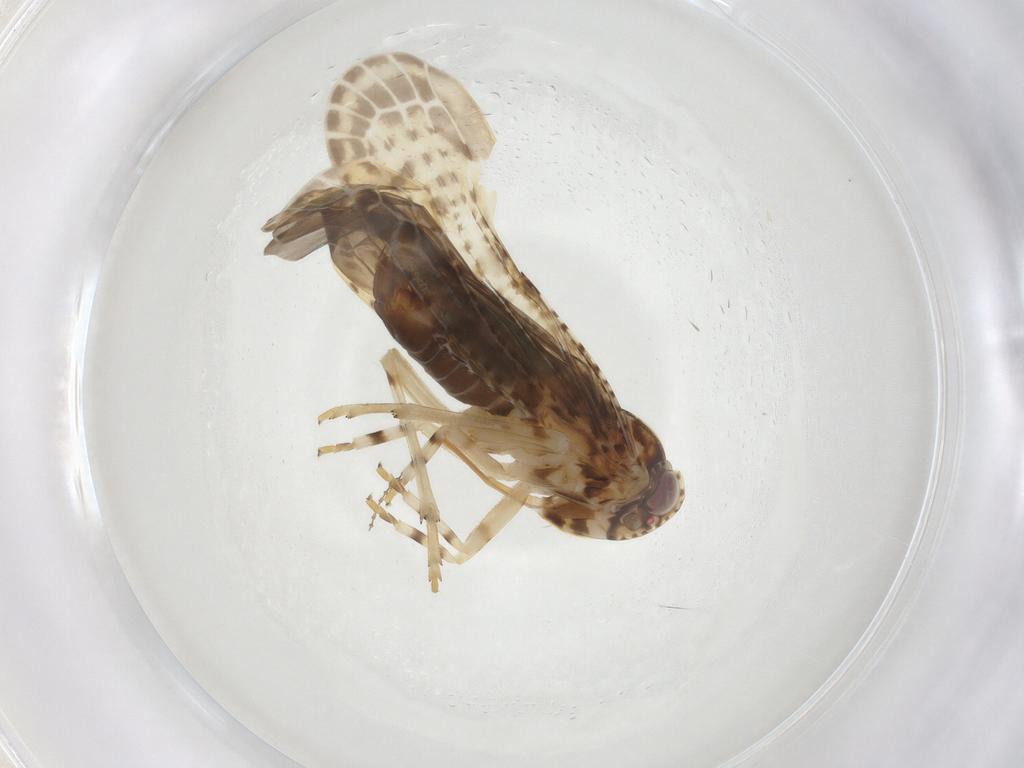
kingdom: Animalia
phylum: Arthropoda
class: Insecta
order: Hemiptera
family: Achilidae
